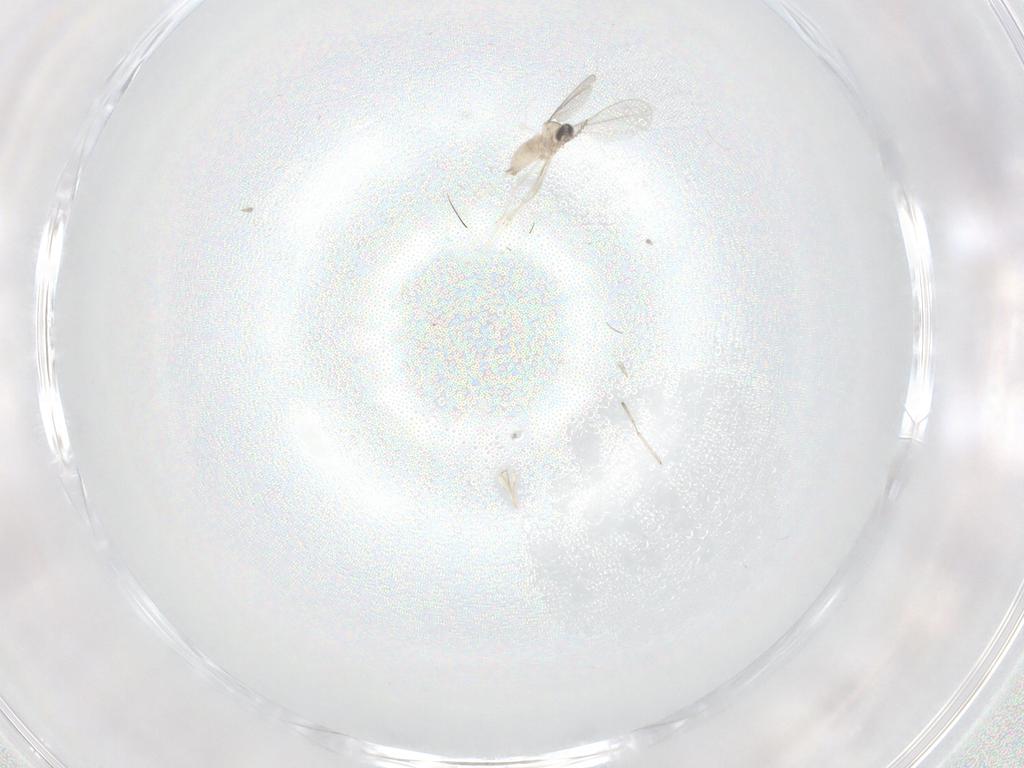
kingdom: Animalia
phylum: Arthropoda
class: Insecta
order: Diptera
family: Cecidomyiidae
